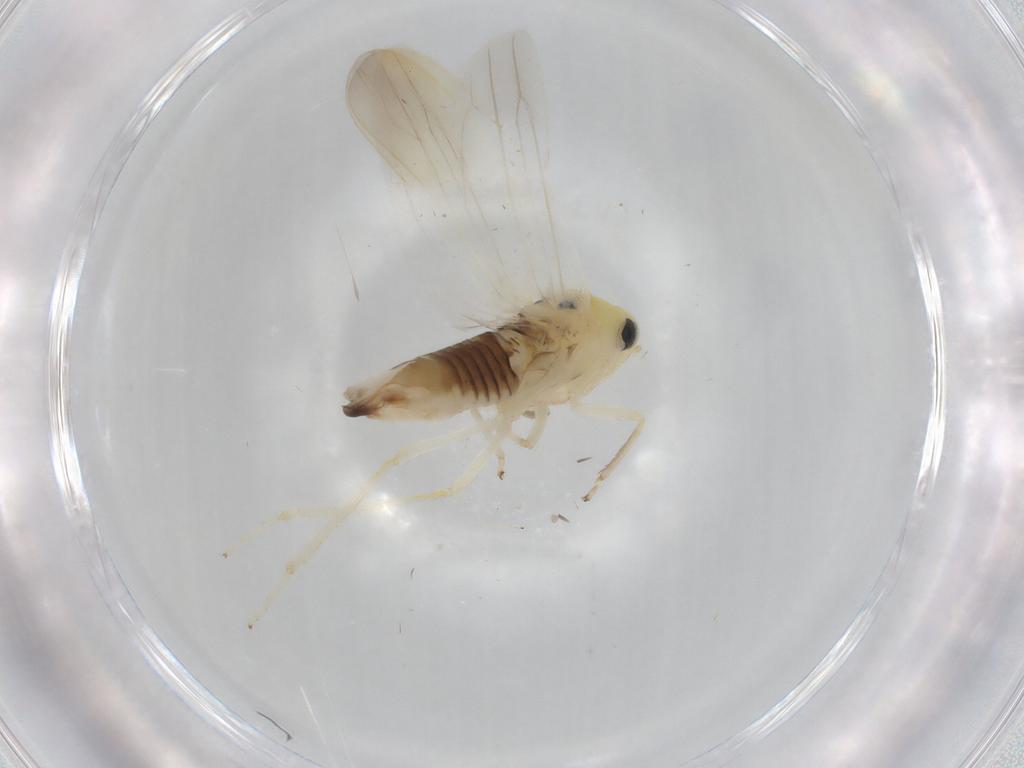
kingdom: Animalia
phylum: Arthropoda
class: Insecta
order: Hemiptera
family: Cicadellidae
